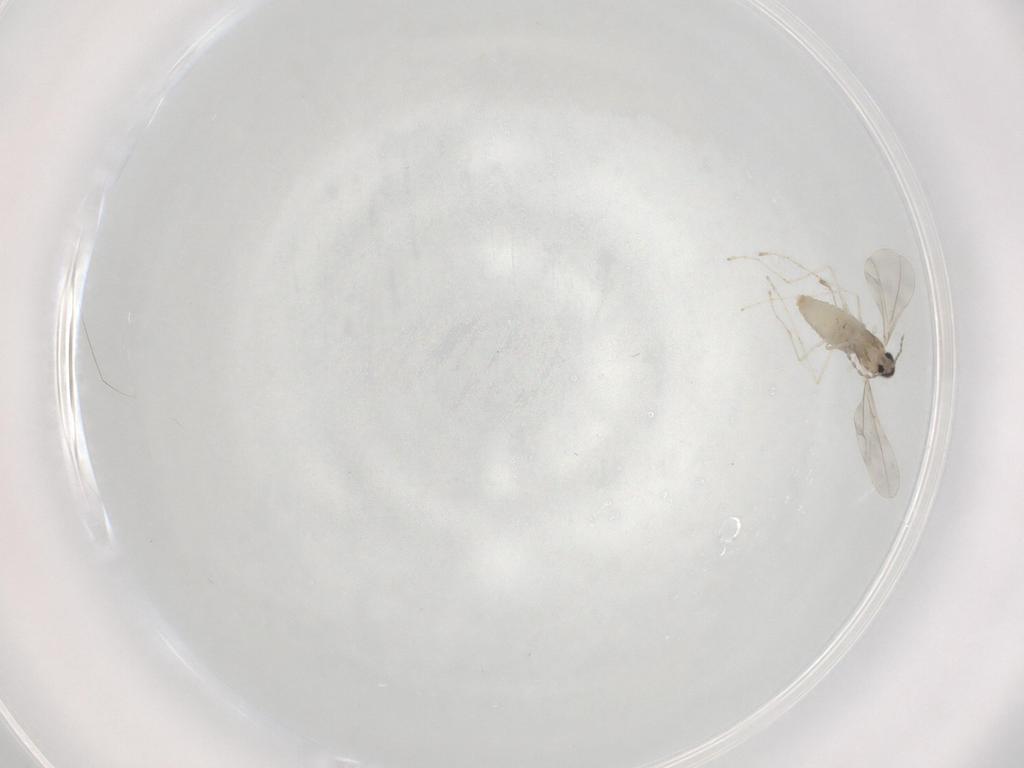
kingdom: Animalia
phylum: Arthropoda
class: Insecta
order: Diptera
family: Cecidomyiidae
